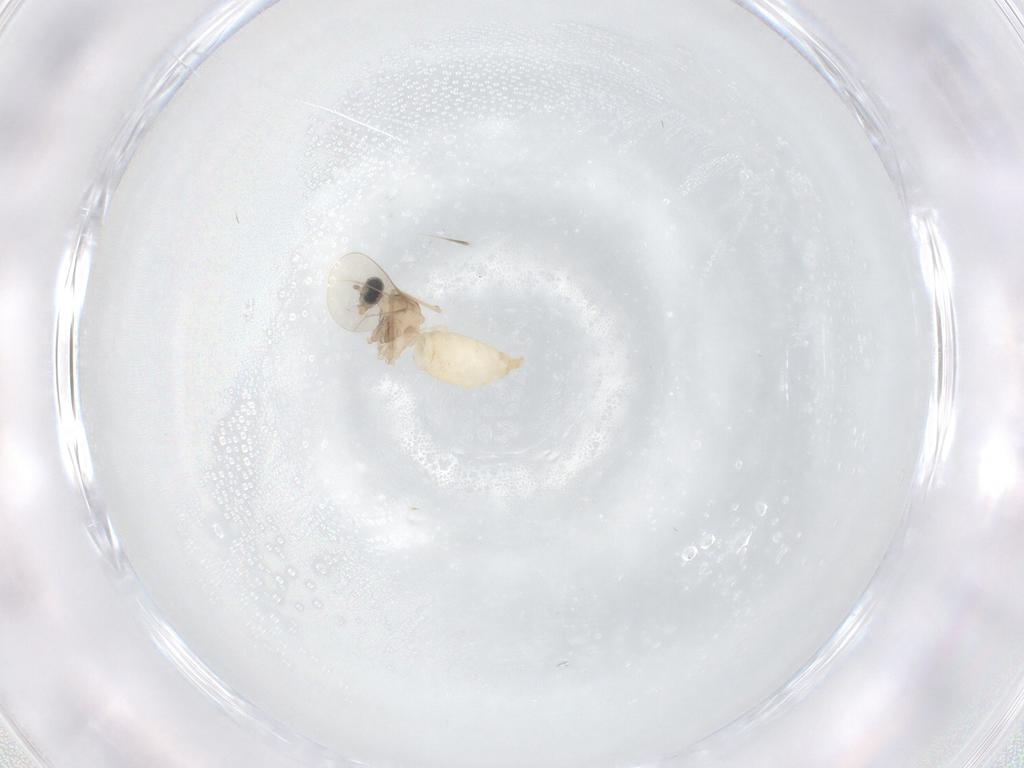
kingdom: Animalia
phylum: Arthropoda
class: Insecta
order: Diptera
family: Cecidomyiidae
